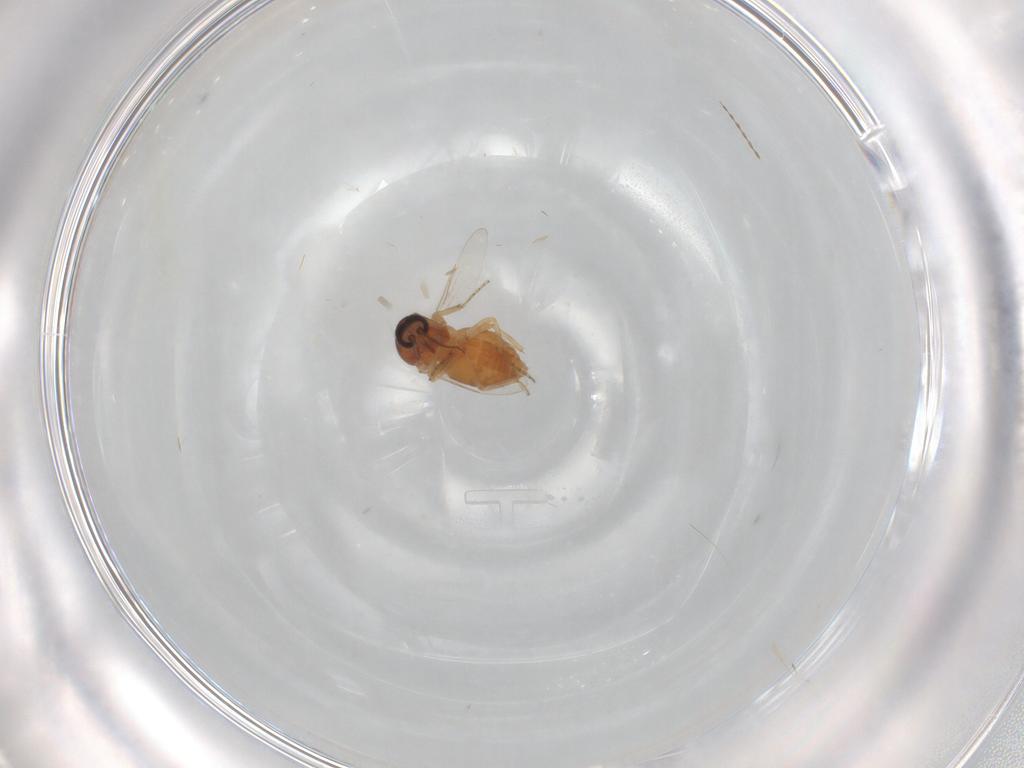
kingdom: Animalia
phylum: Arthropoda
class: Insecta
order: Diptera
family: Ceratopogonidae
